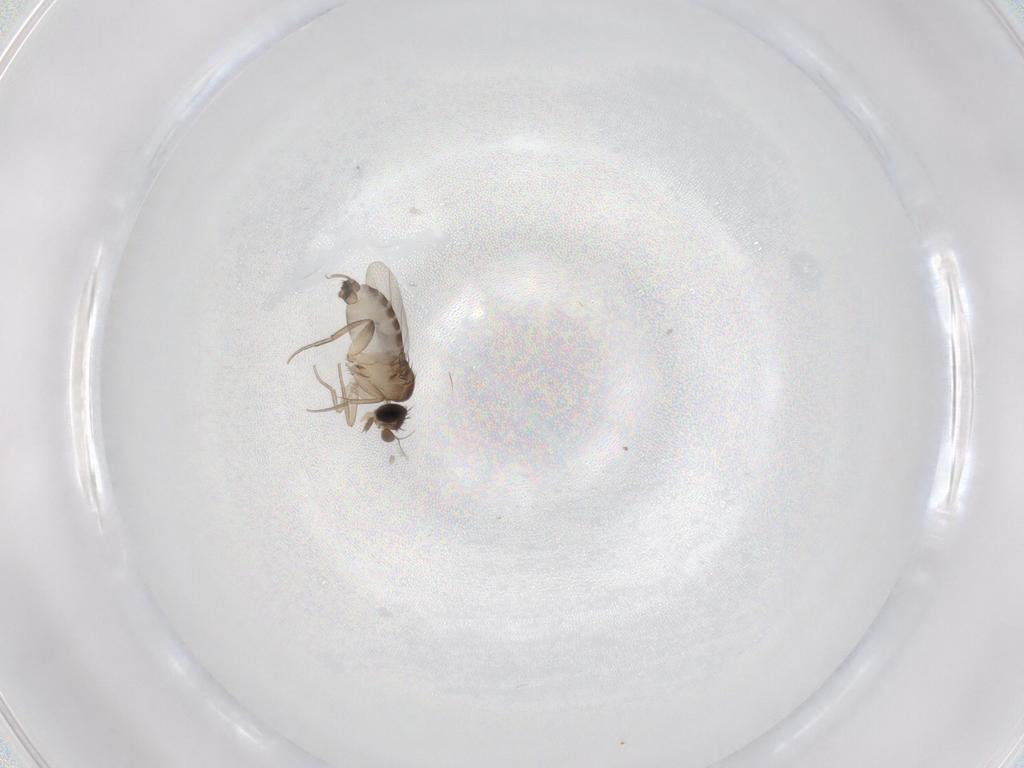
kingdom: Animalia
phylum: Arthropoda
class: Insecta
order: Diptera
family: Phoridae
